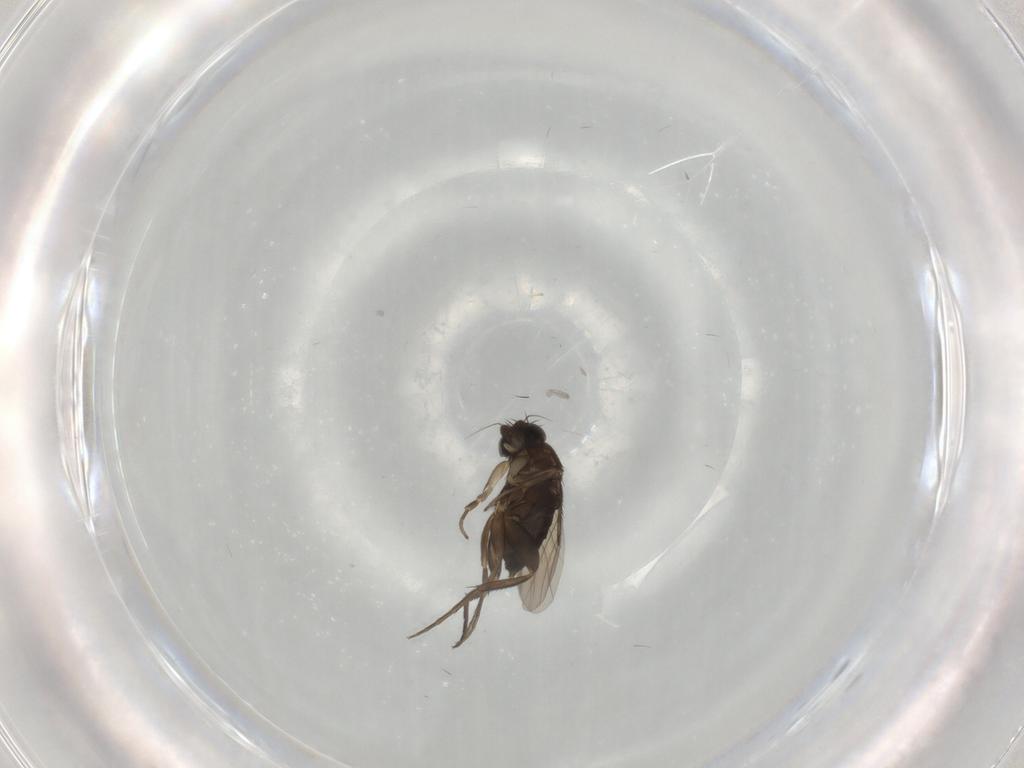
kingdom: Animalia
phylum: Arthropoda
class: Insecta
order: Diptera
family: Phoridae
